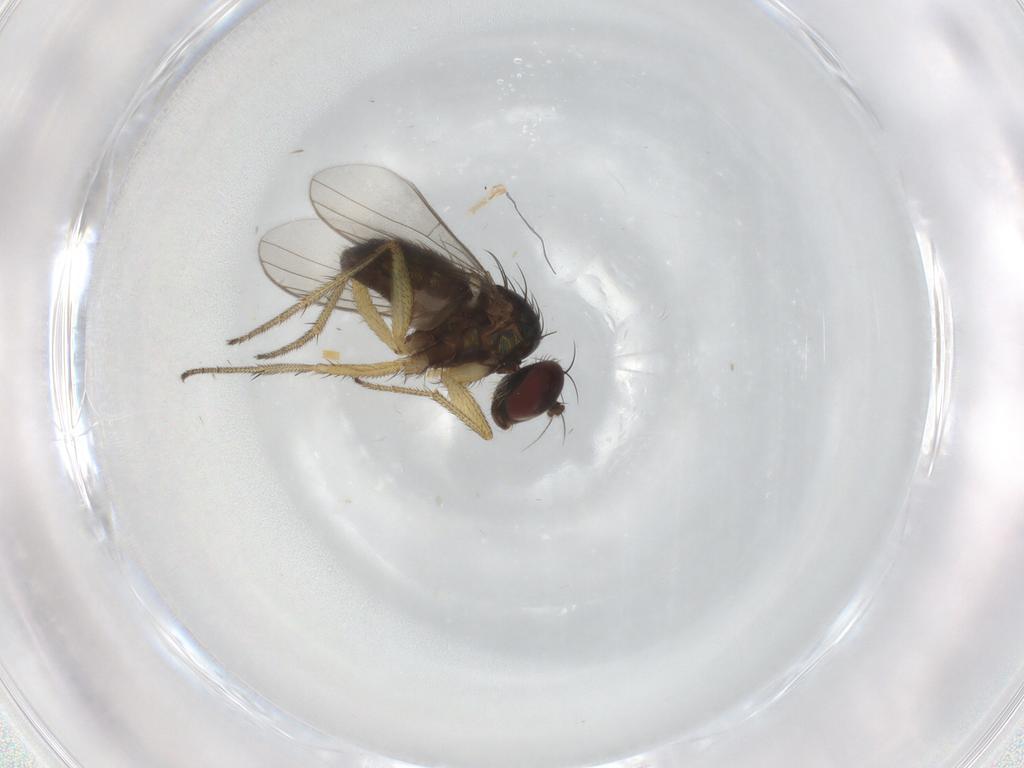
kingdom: Animalia
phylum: Arthropoda
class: Insecta
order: Diptera
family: Dolichopodidae
